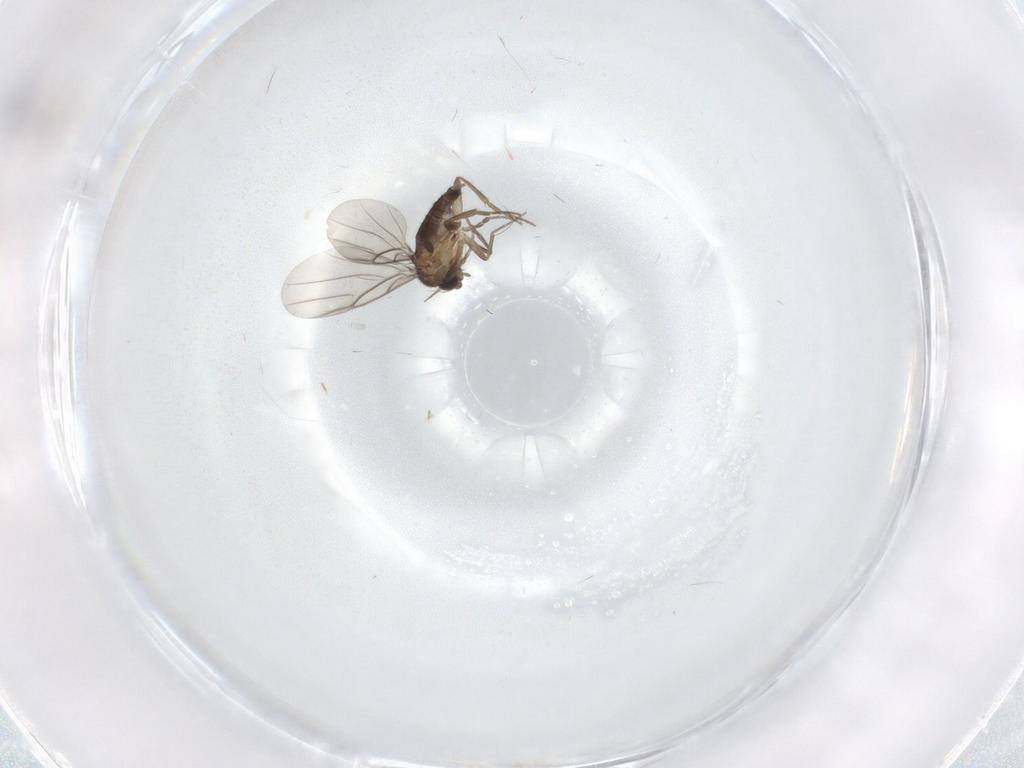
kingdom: Animalia
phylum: Arthropoda
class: Insecta
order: Diptera
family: Phoridae
